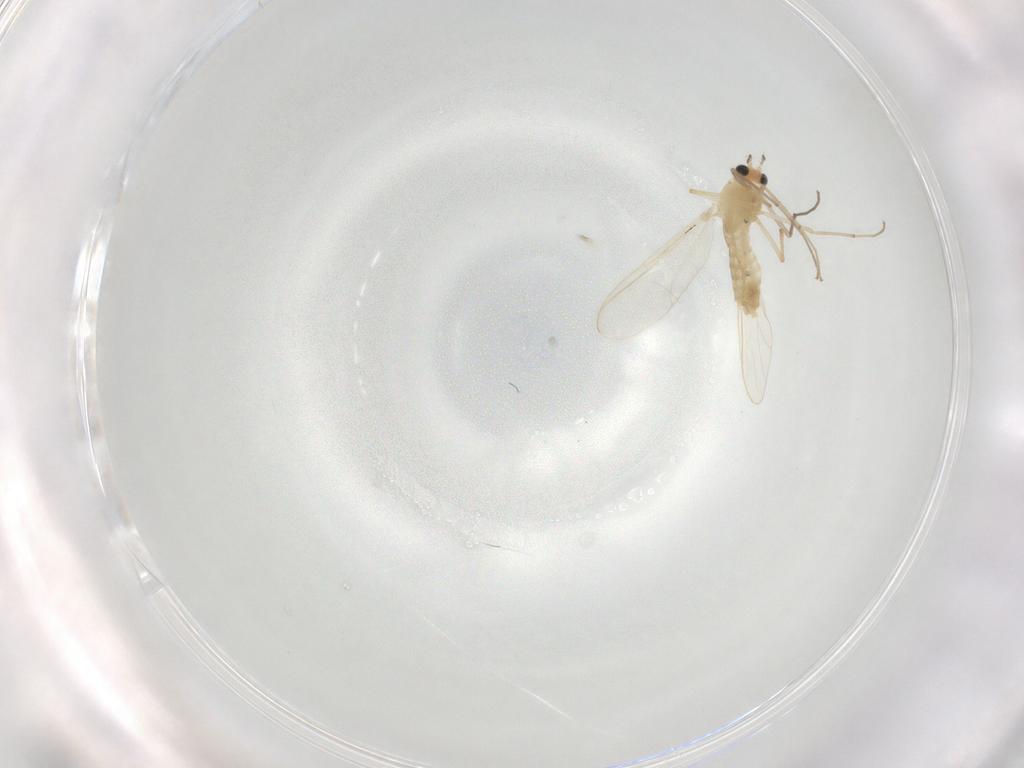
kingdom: Animalia
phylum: Arthropoda
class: Insecta
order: Diptera
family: Chironomidae
